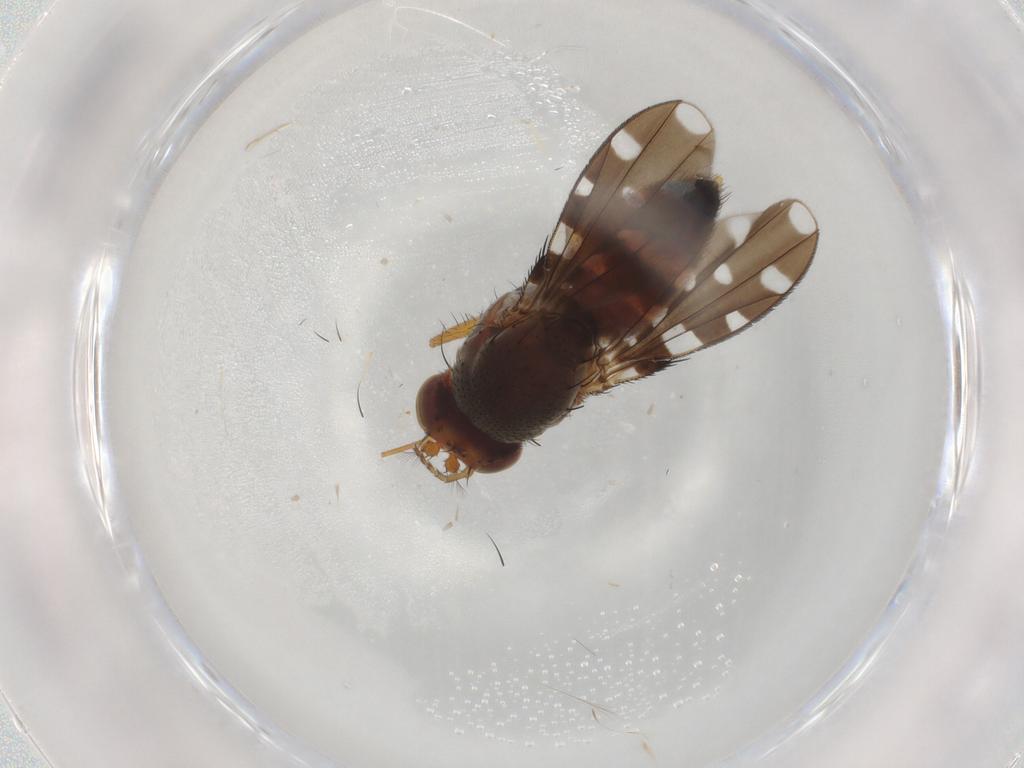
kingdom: Animalia
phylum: Arthropoda
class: Insecta
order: Diptera
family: Ephydridae
